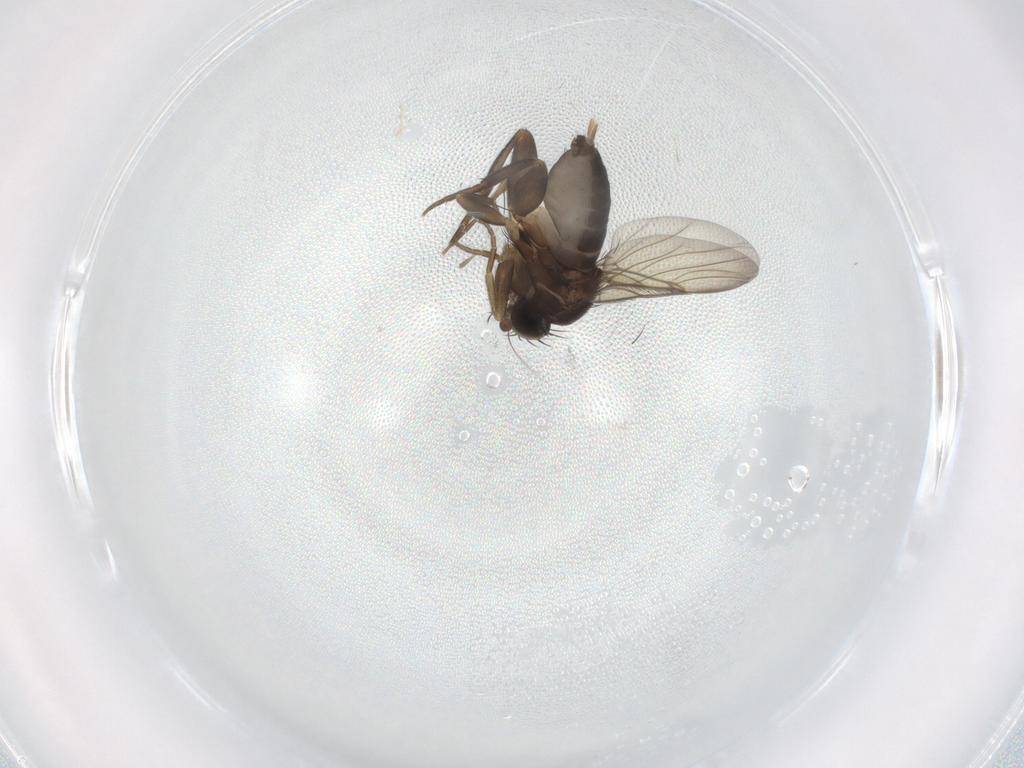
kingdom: Animalia
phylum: Arthropoda
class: Insecta
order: Diptera
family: Phoridae
